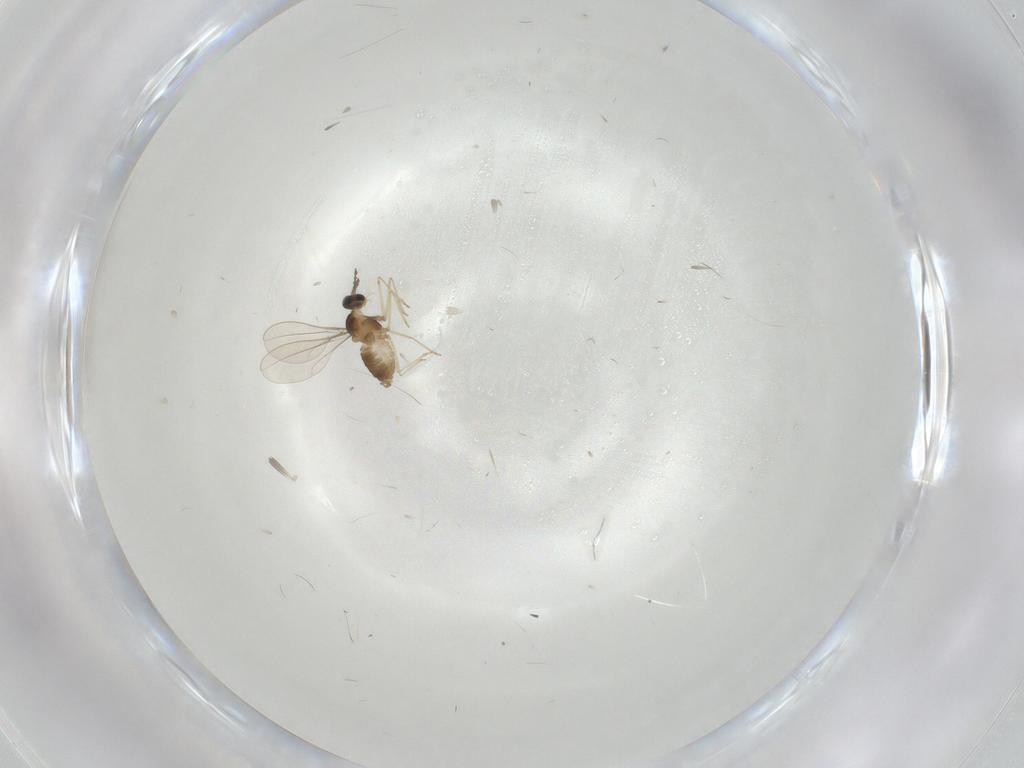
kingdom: Animalia
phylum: Arthropoda
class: Insecta
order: Diptera
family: Cecidomyiidae
